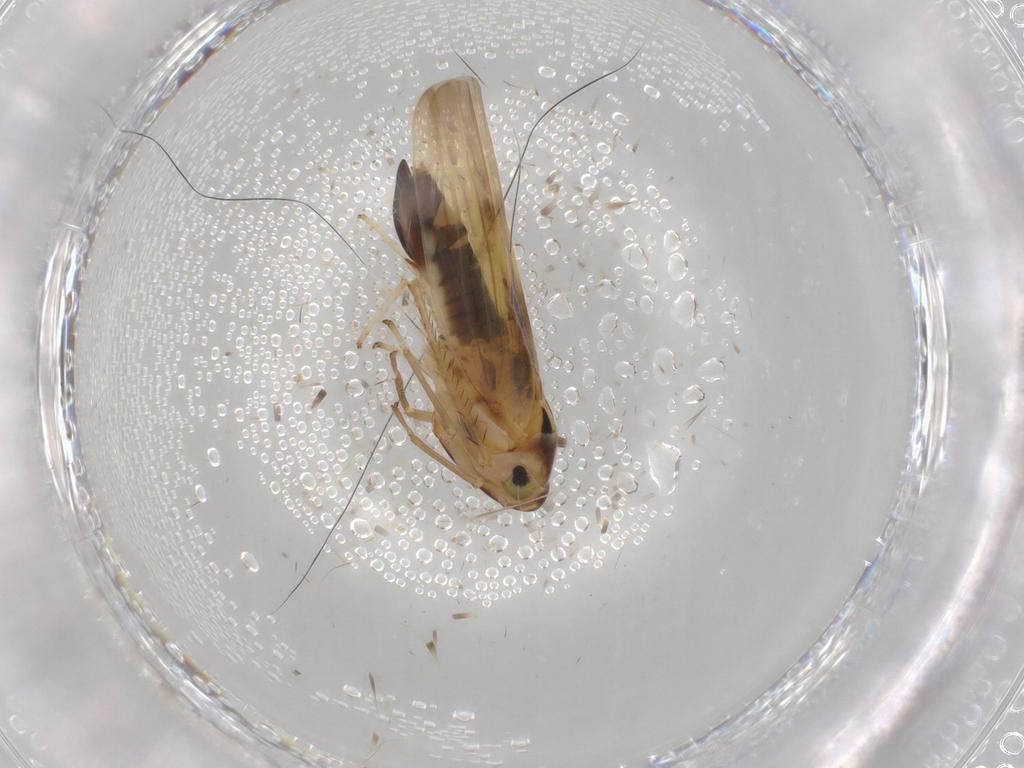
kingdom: Animalia
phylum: Arthropoda
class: Insecta
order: Hemiptera
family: Cicadellidae
